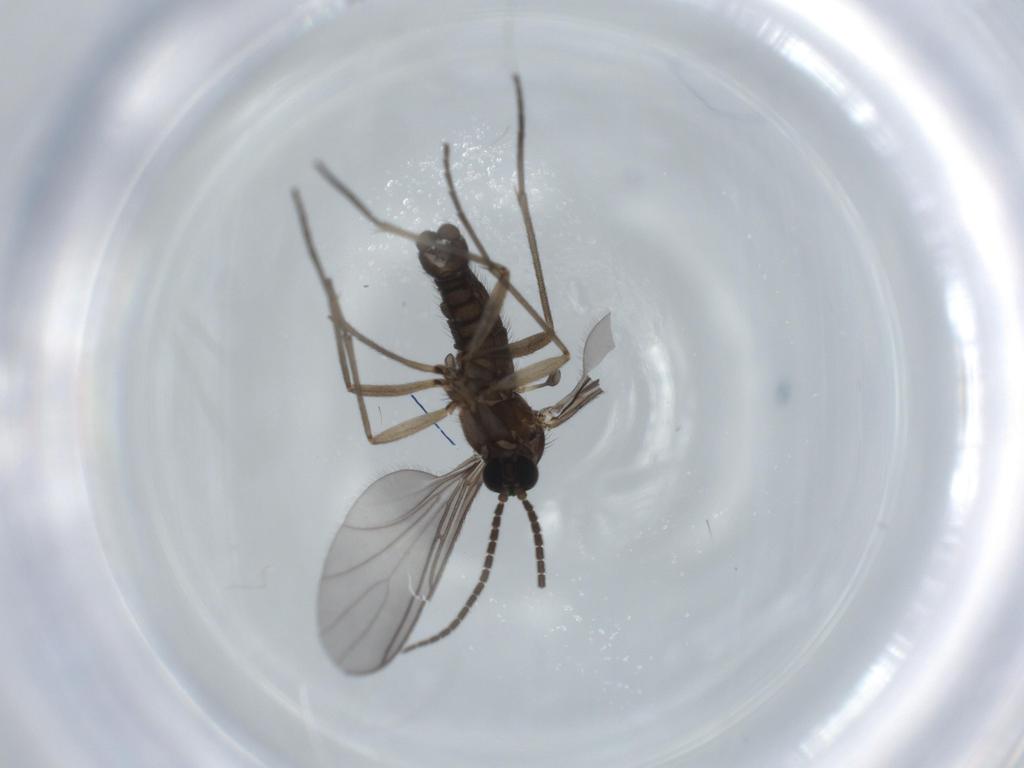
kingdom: Animalia
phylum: Arthropoda
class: Insecta
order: Diptera
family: Sciaridae
